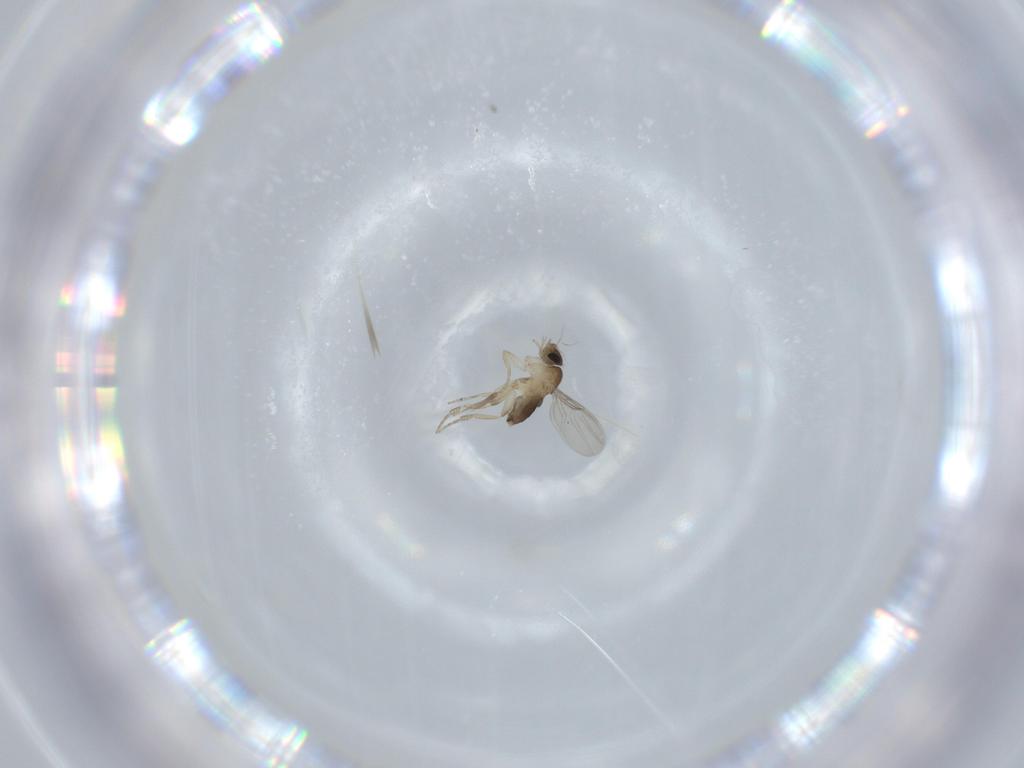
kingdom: Animalia
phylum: Arthropoda
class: Insecta
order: Diptera
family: Phoridae
